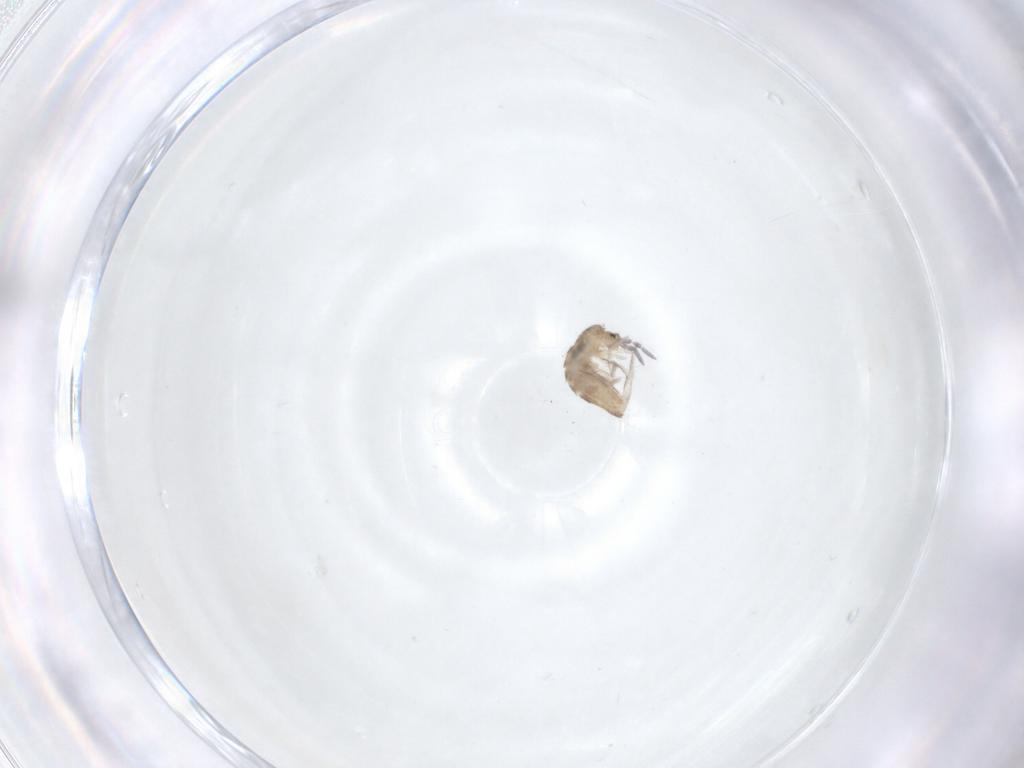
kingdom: Animalia
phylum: Arthropoda
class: Collembola
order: Entomobryomorpha
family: Entomobryidae
